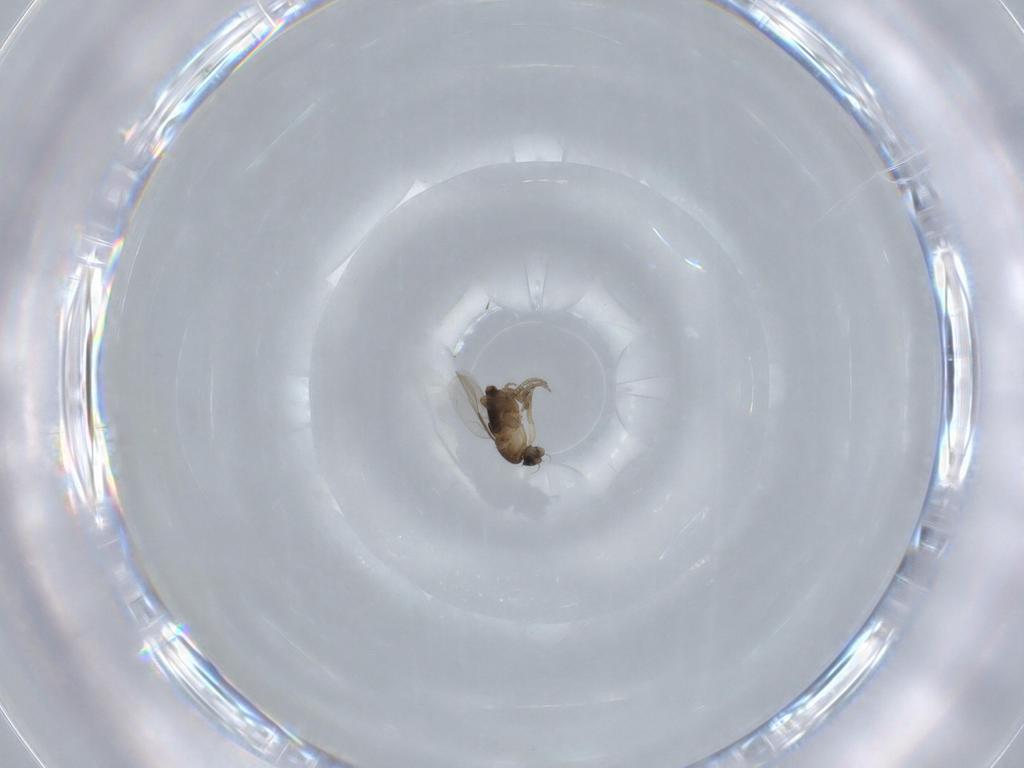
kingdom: Animalia
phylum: Arthropoda
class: Insecta
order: Diptera
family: Phoridae
